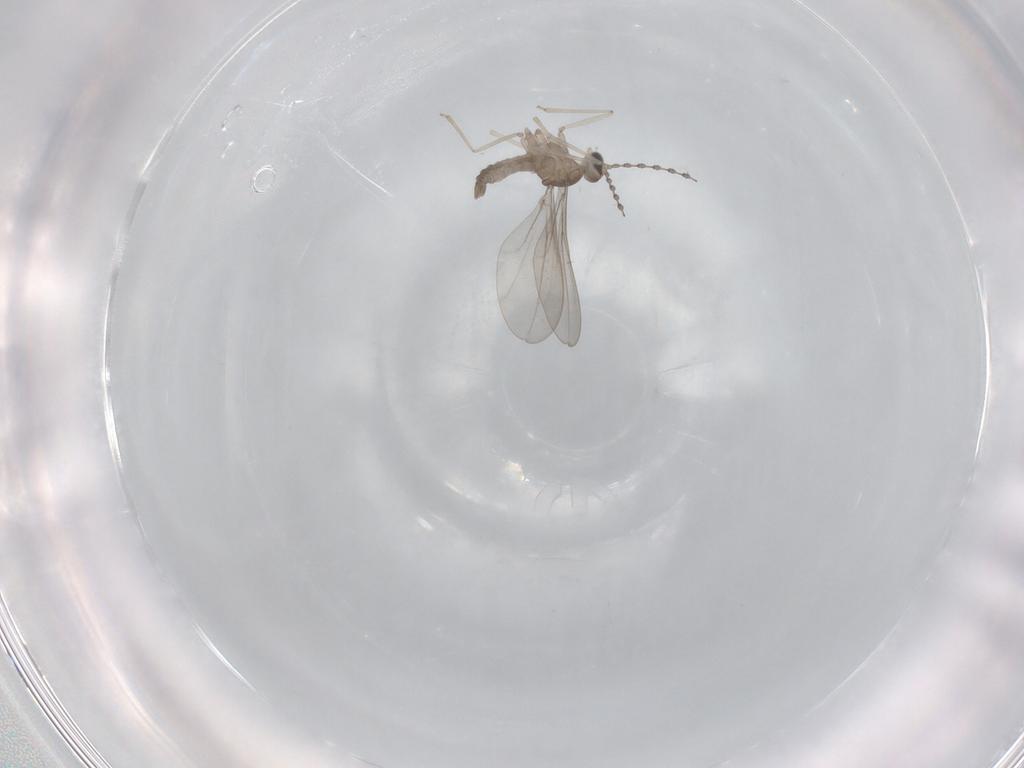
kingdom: Animalia
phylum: Arthropoda
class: Insecta
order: Diptera
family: Cecidomyiidae
